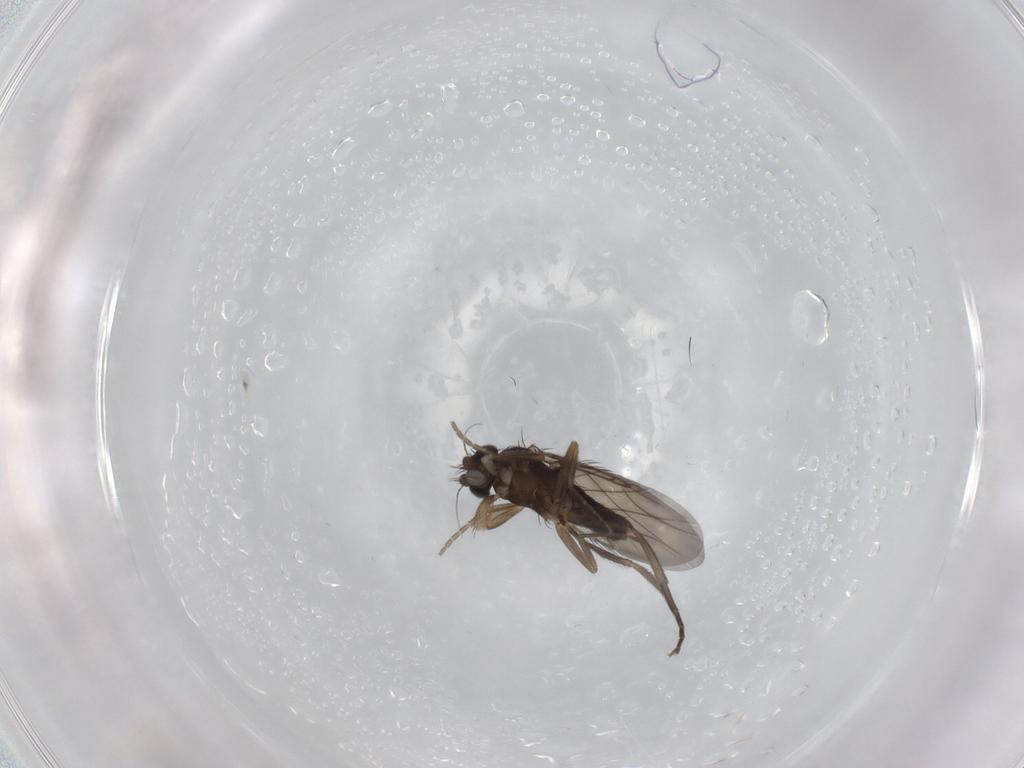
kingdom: Animalia
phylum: Arthropoda
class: Insecta
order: Diptera
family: Phoridae
